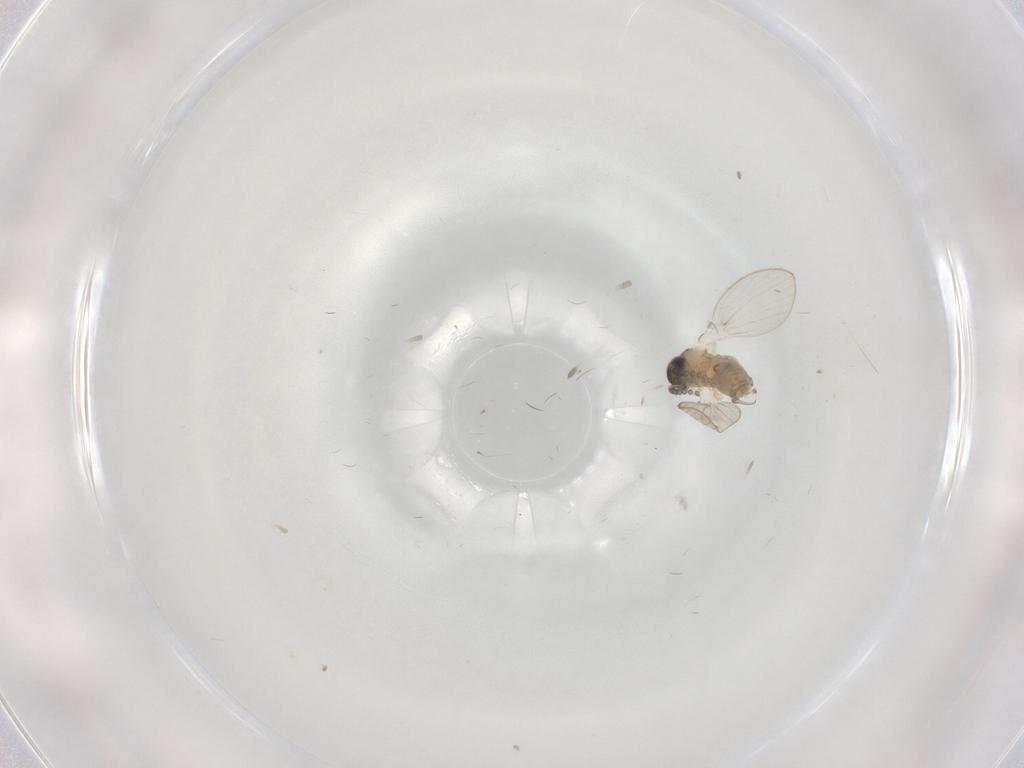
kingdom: Animalia
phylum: Arthropoda
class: Insecta
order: Diptera
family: Psychodidae
